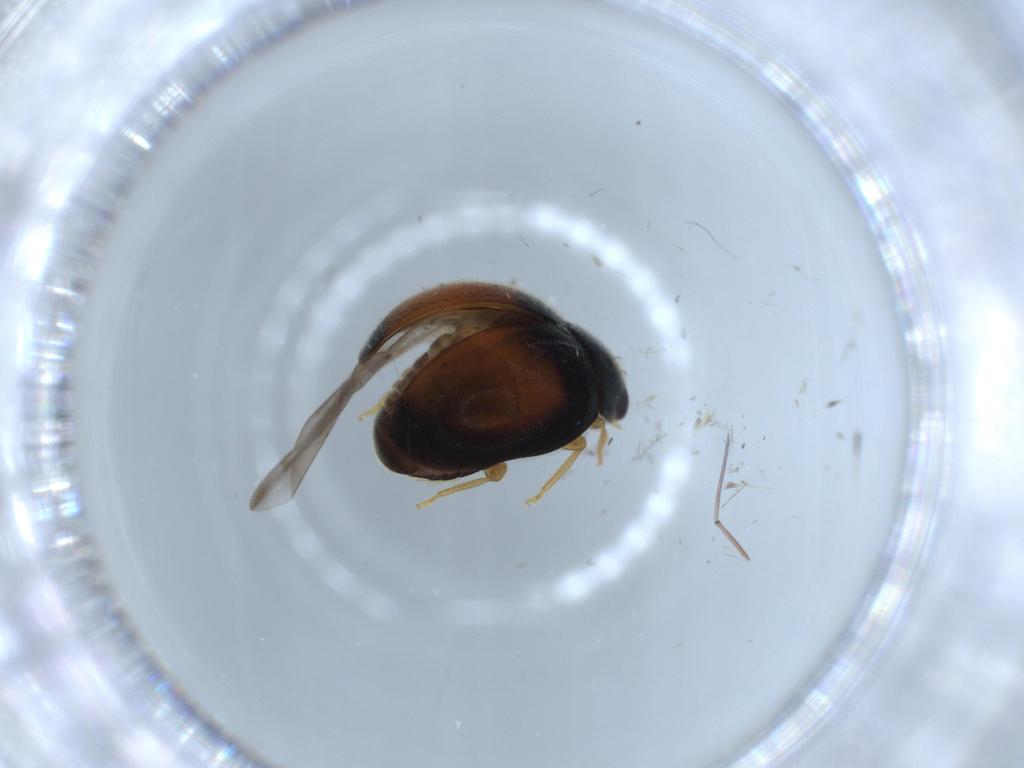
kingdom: Animalia
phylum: Arthropoda
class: Insecta
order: Coleoptera
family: Coccinellidae
